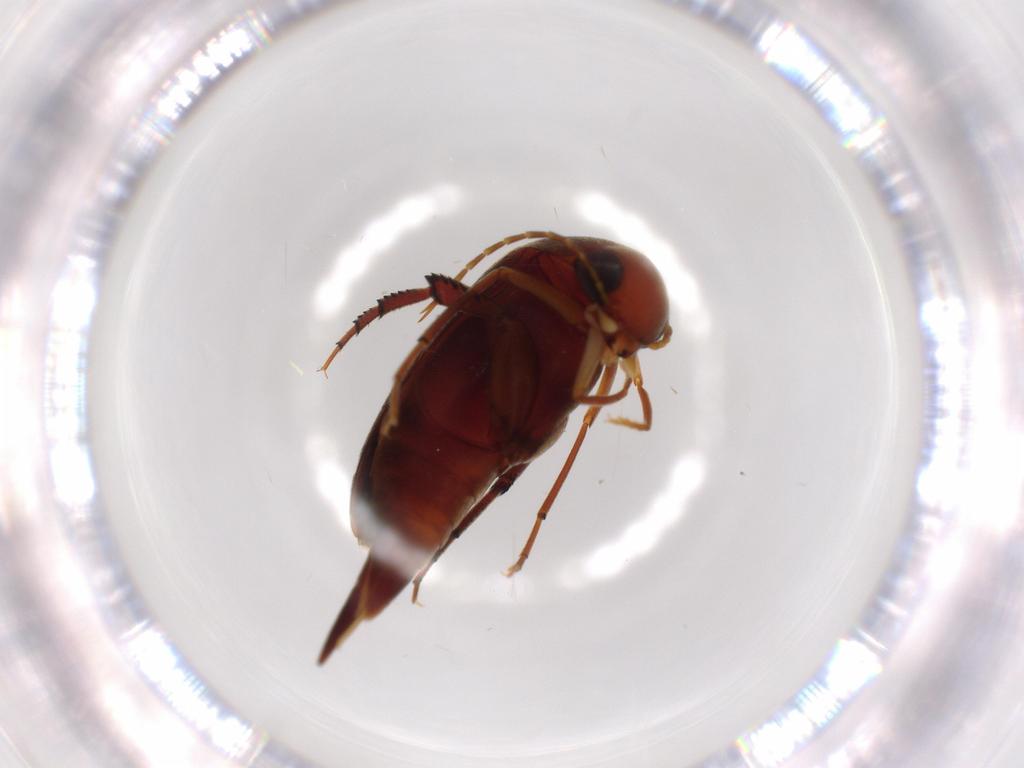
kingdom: Animalia
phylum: Arthropoda
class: Insecta
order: Coleoptera
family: Mordellidae
